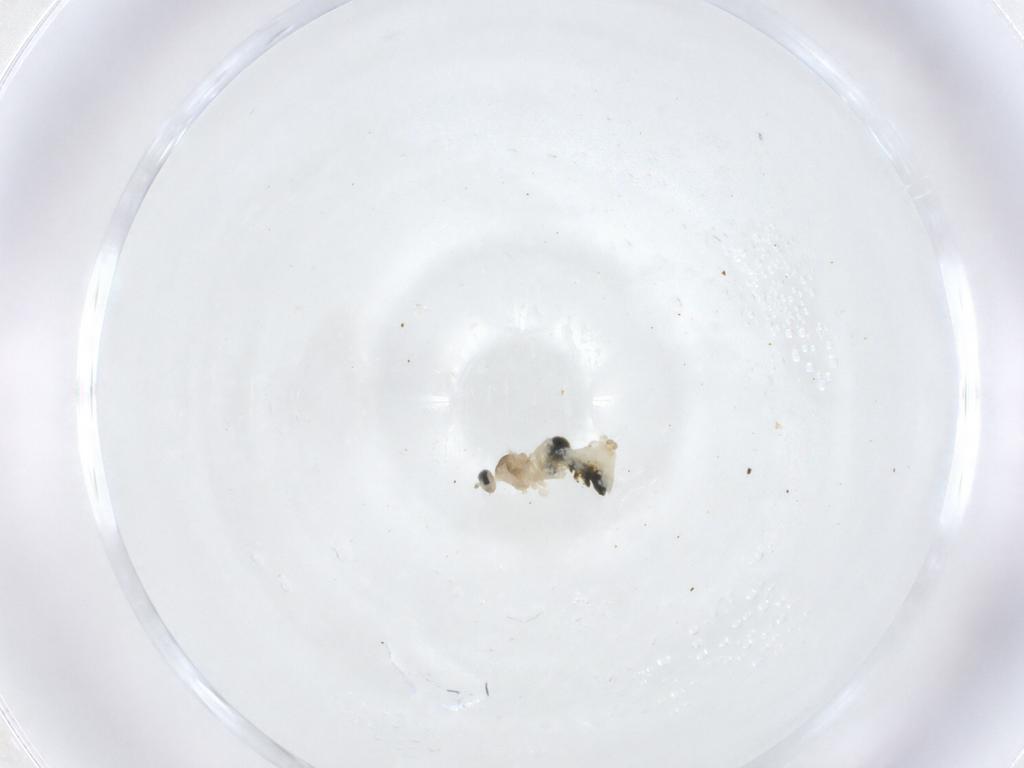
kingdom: Animalia
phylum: Arthropoda
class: Insecta
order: Diptera
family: Cecidomyiidae
